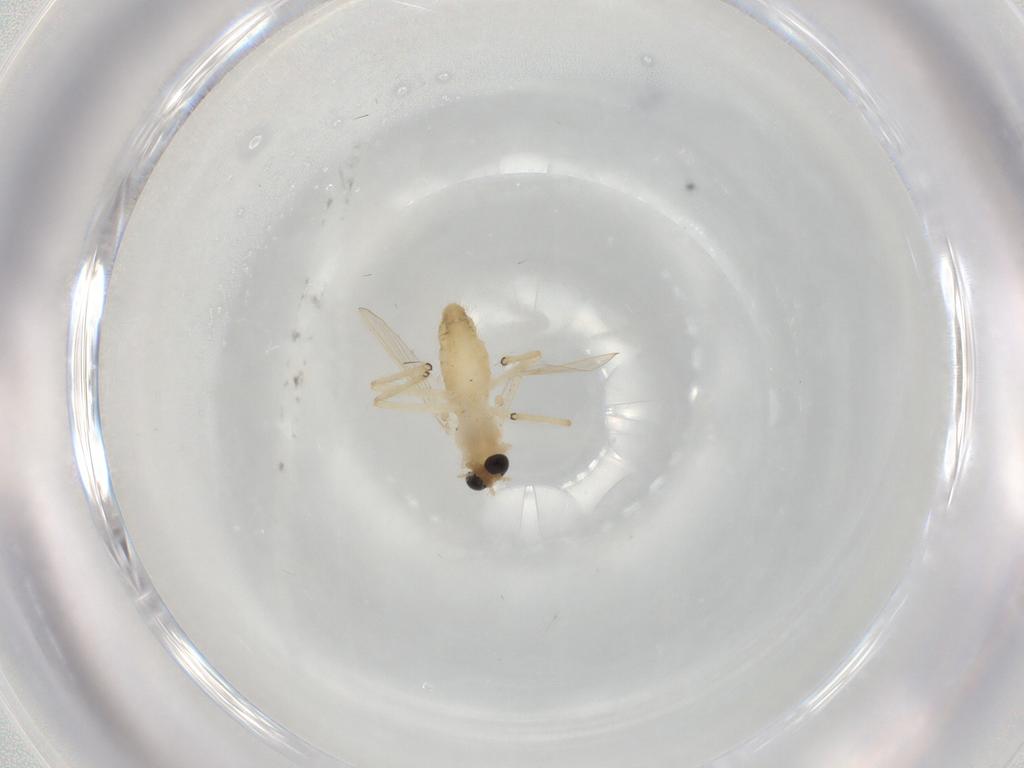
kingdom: Animalia
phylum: Arthropoda
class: Insecta
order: Diptera
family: Chironomidae
